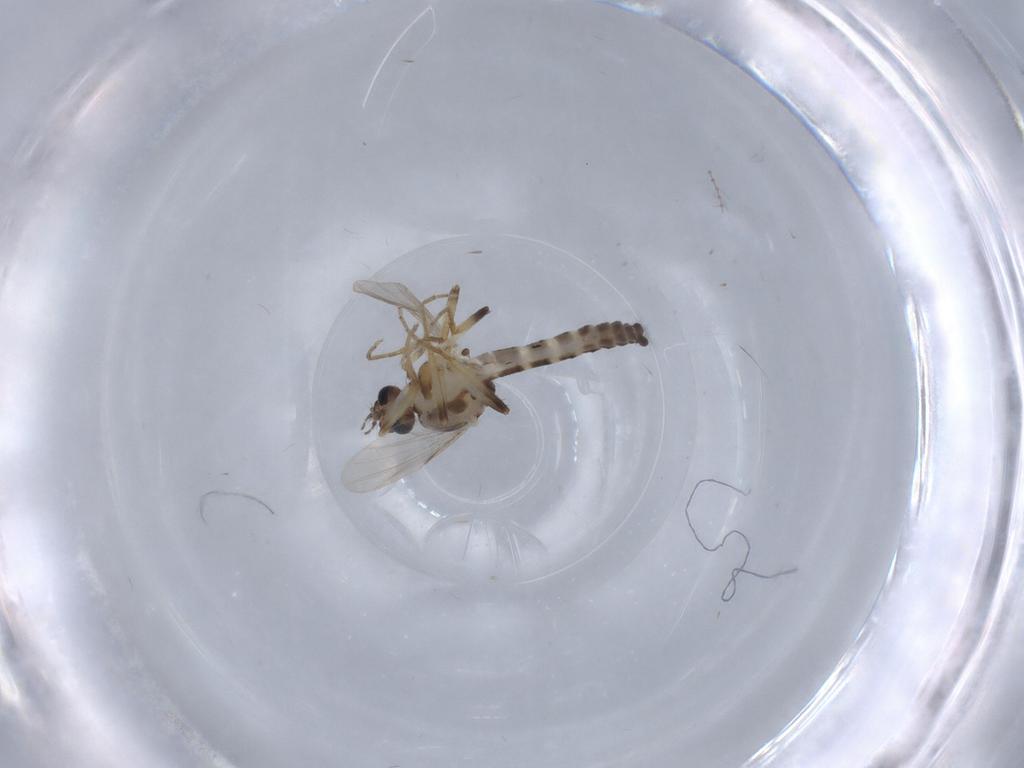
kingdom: Animalia
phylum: Arthropoda
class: Insecta
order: Diptera
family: Ceratopogonidae
